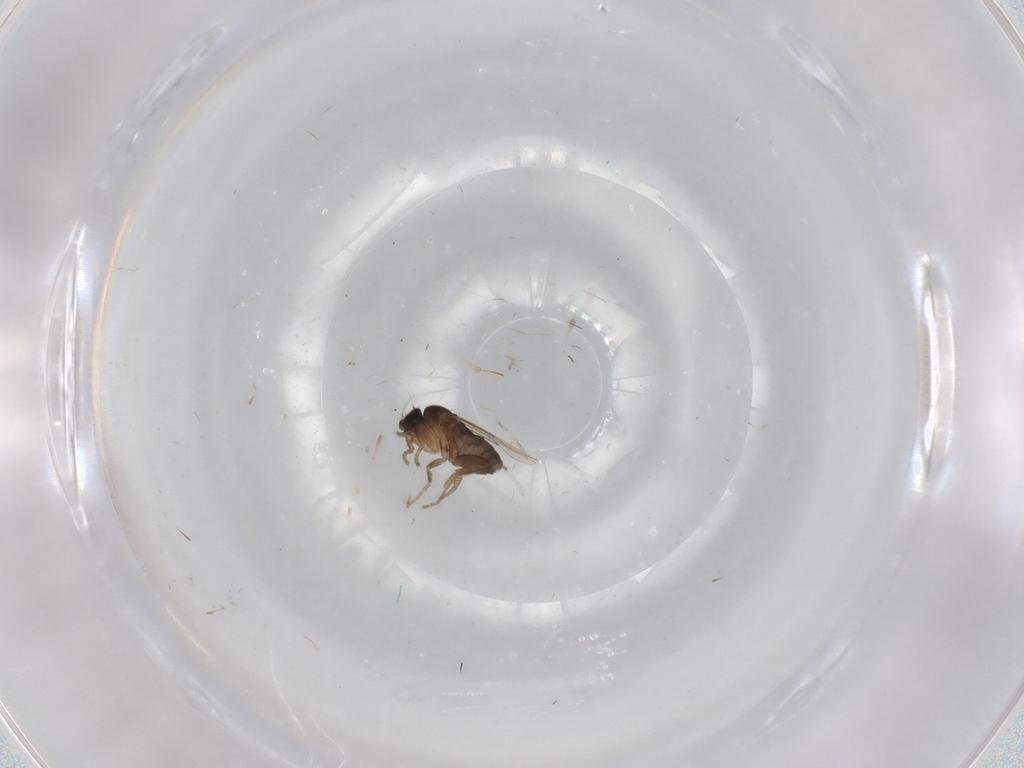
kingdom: Animalia
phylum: Arthropoda
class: Insecta
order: Diptera
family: Phoridae
